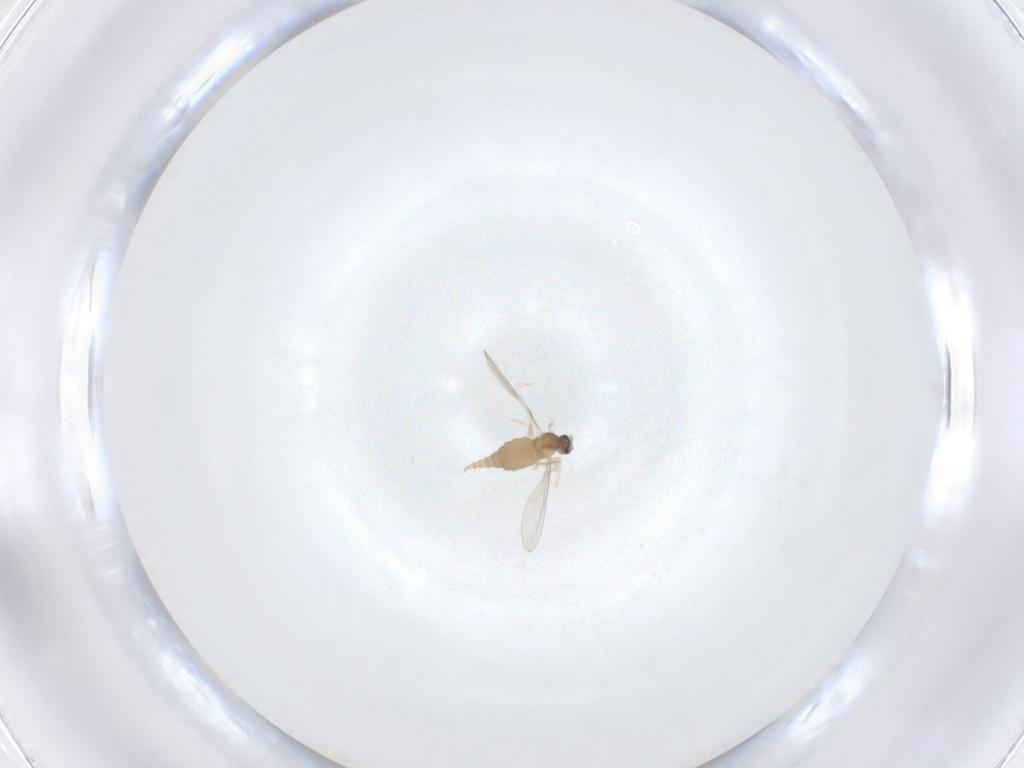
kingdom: Animalia
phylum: Arthropoda
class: Insecta
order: Diptera
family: Cecidomyiidae
